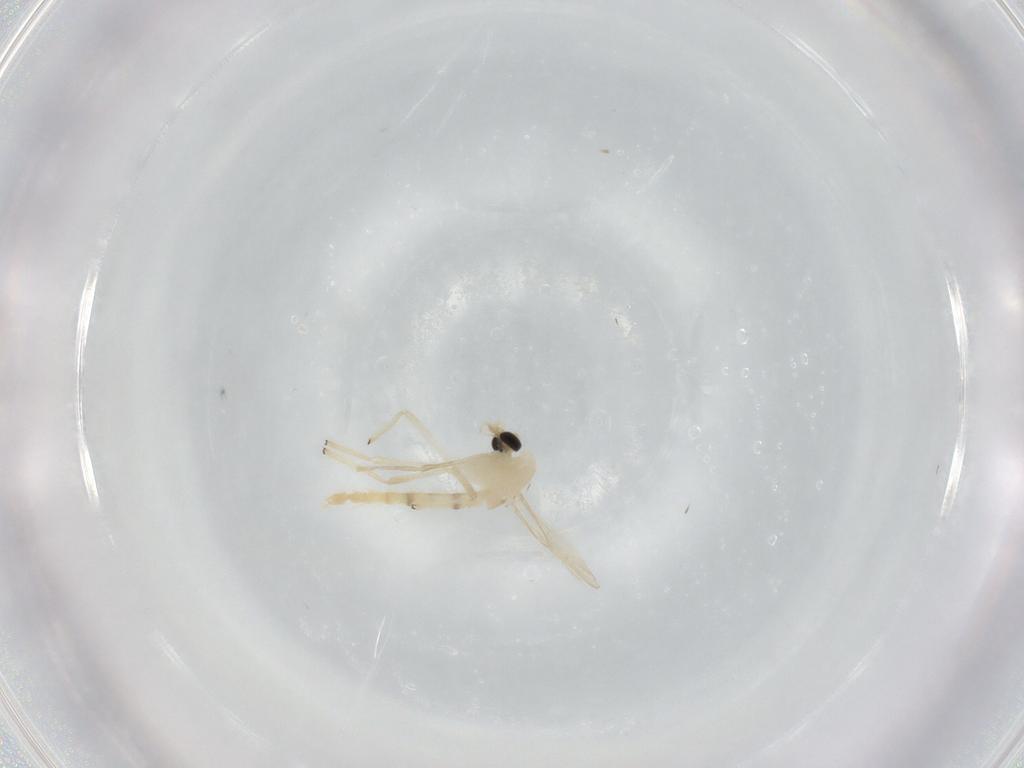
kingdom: Animalia
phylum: Arthropoda
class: Insecta
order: Diptera
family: Chironomidae
